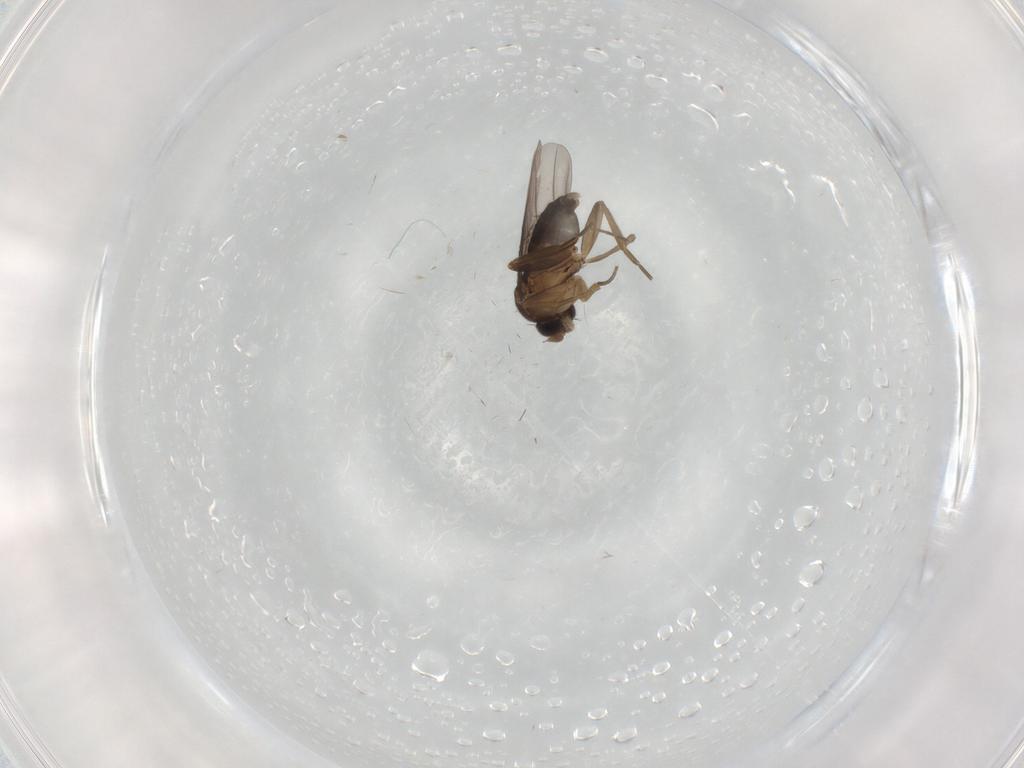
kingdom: Animalia
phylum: Arthropoda
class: Insecta
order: Diptera
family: Phoridae
